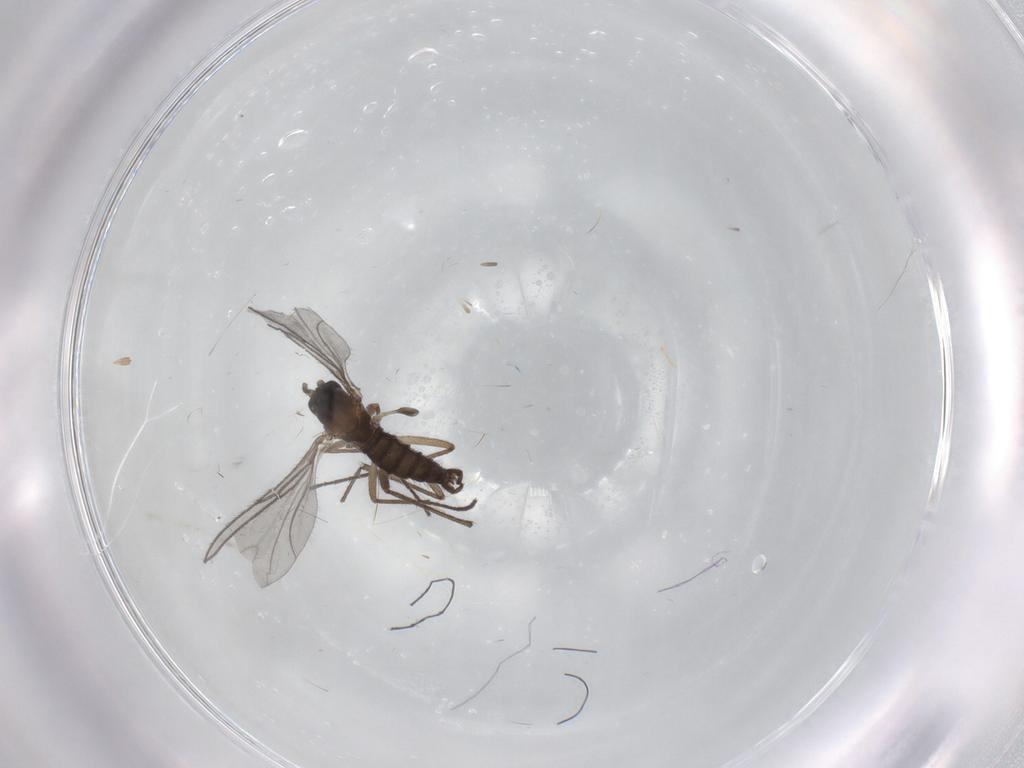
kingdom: Animalia
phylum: Arthropoda
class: Insecta
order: Diptera
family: Sciaridae
